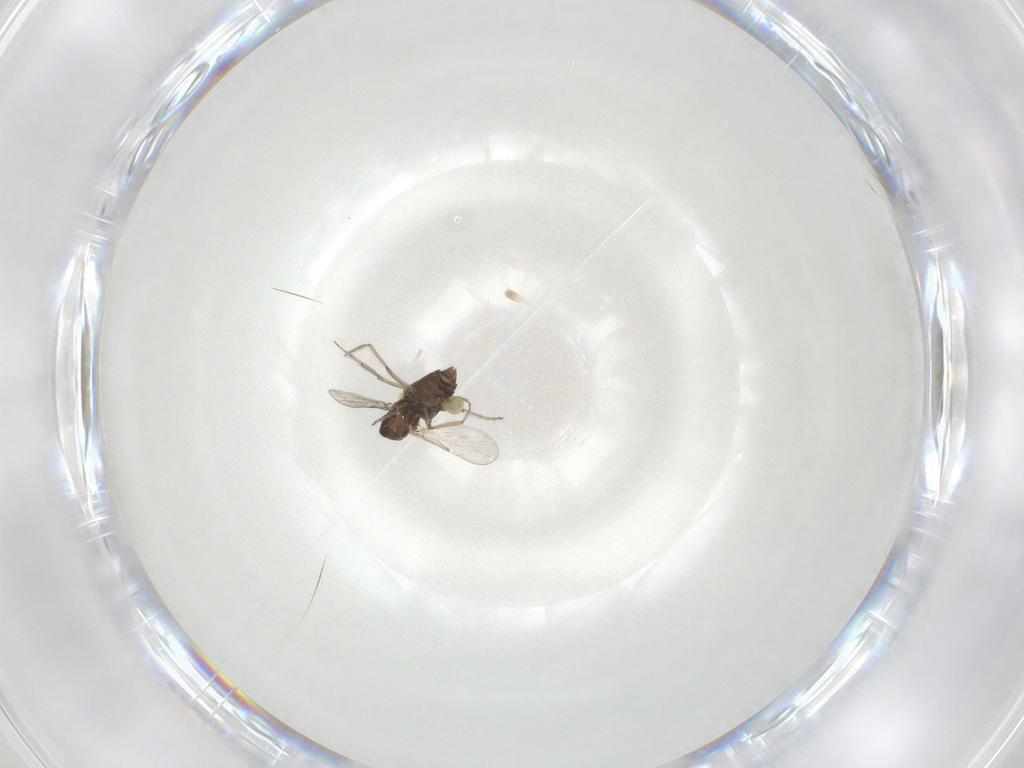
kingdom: Animalia
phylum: Arthropoda
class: Insecta
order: Diptera
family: Ceratopogonidae
